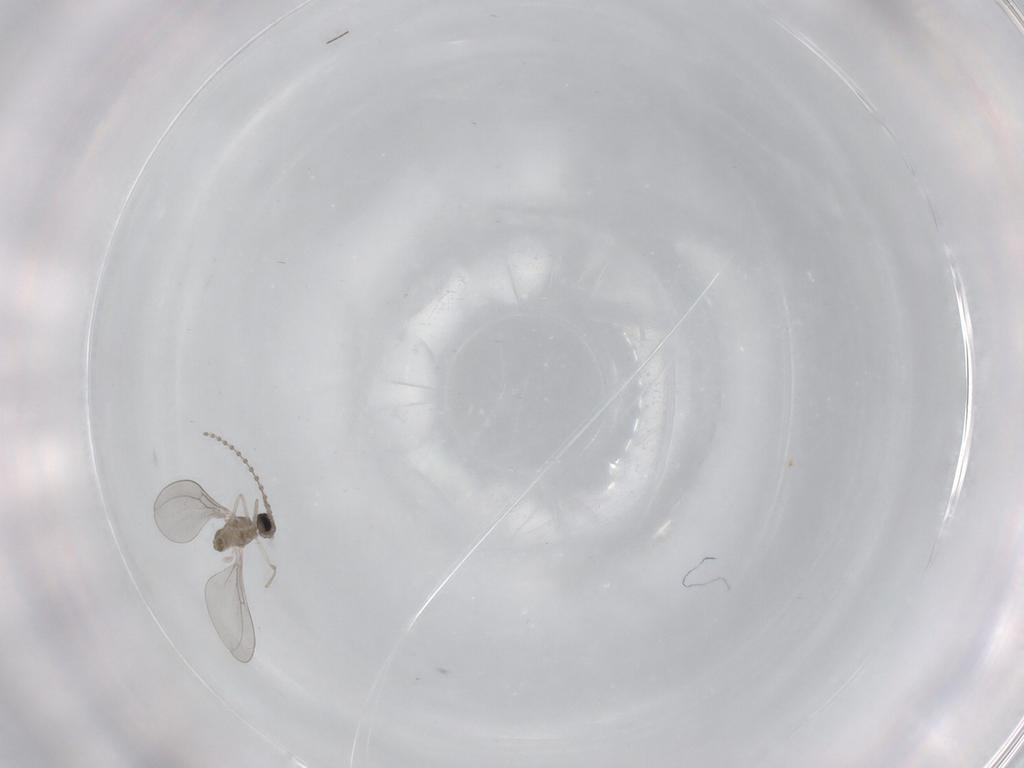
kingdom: Animalia
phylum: Arthropoda
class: Insecta
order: Diptera
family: Cecidomyiidae
